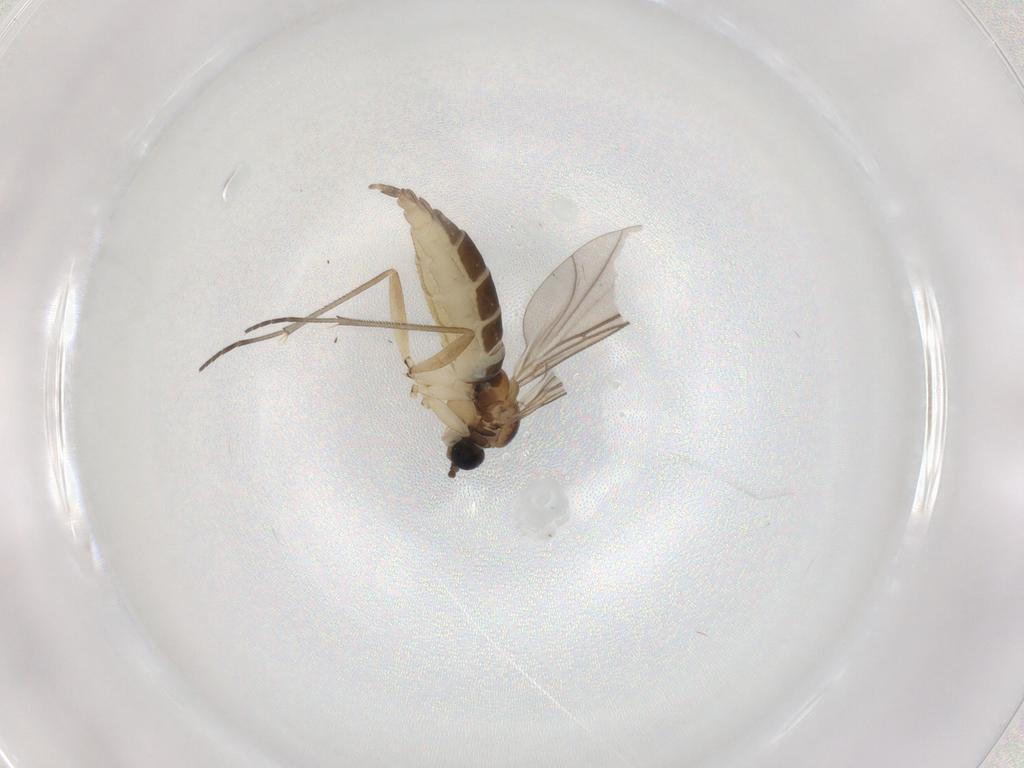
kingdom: Animalia
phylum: Arthropoda
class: Insecta
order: Diptera
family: Sciaridae
